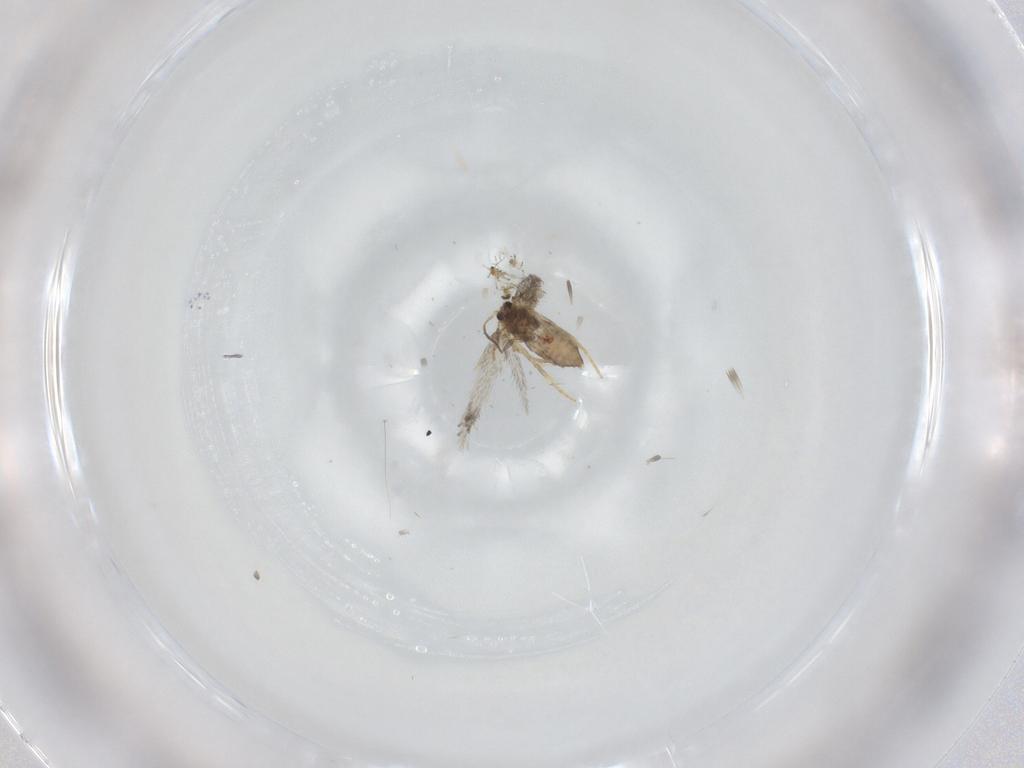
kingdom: Animalia
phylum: Arthropoda
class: Insecta
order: Lepidoptera
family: Nepticulidae
